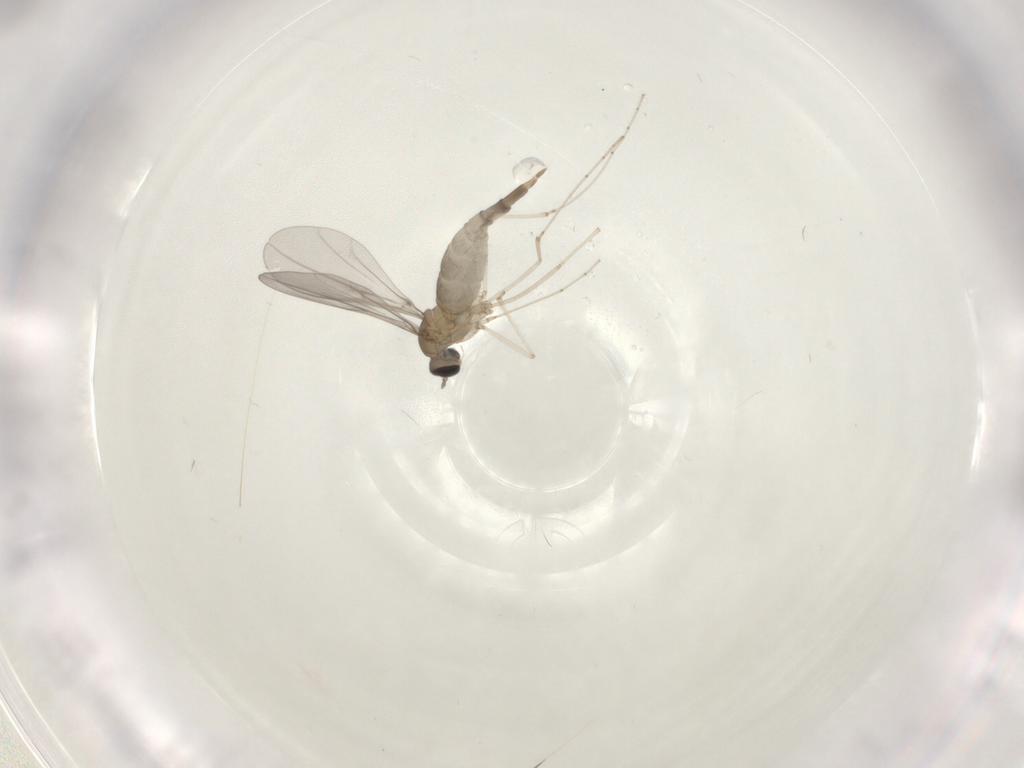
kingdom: Animalia
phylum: Arthropoda
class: Insecta
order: Diptera
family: Cecidomyiidae
